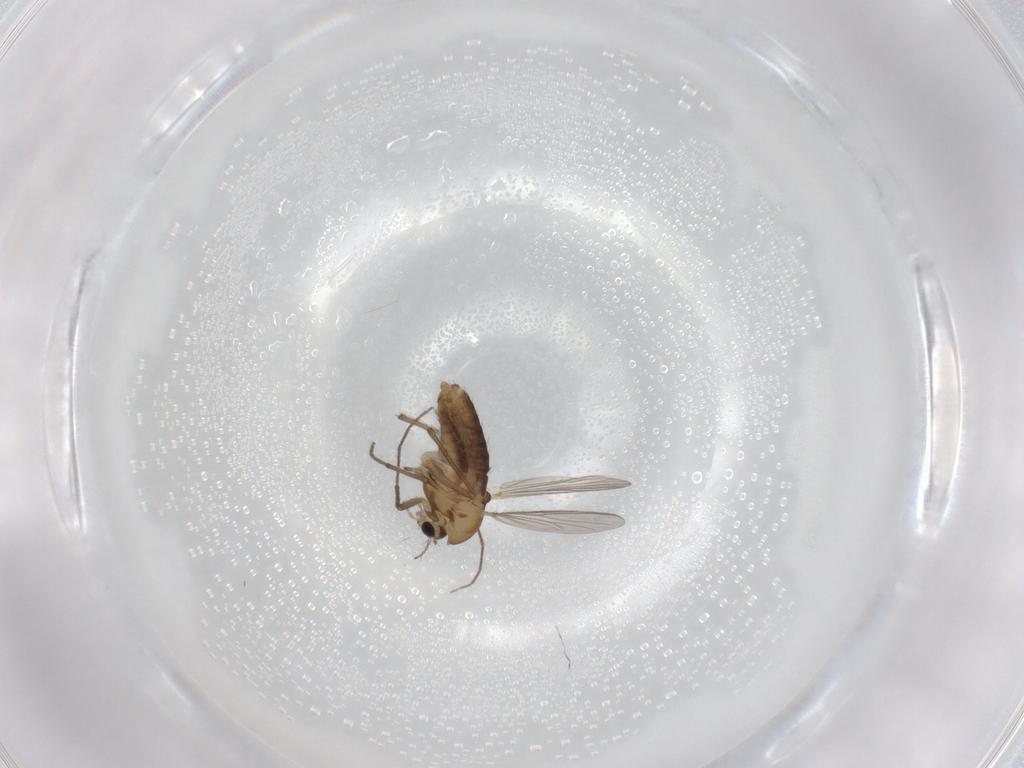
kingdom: Animalia
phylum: Arthropoda
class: Insecta
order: Diptera
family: Chironomidae
